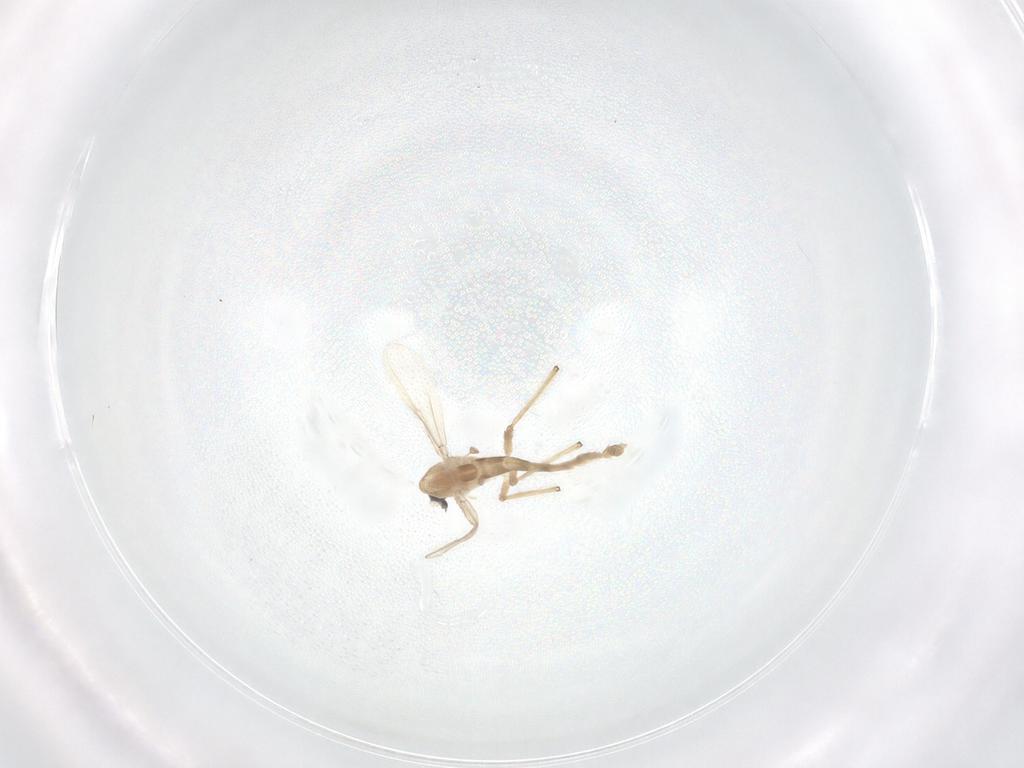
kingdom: Animalia
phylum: Arthropoda
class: Insecta
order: Diptera
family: Chironomidae
